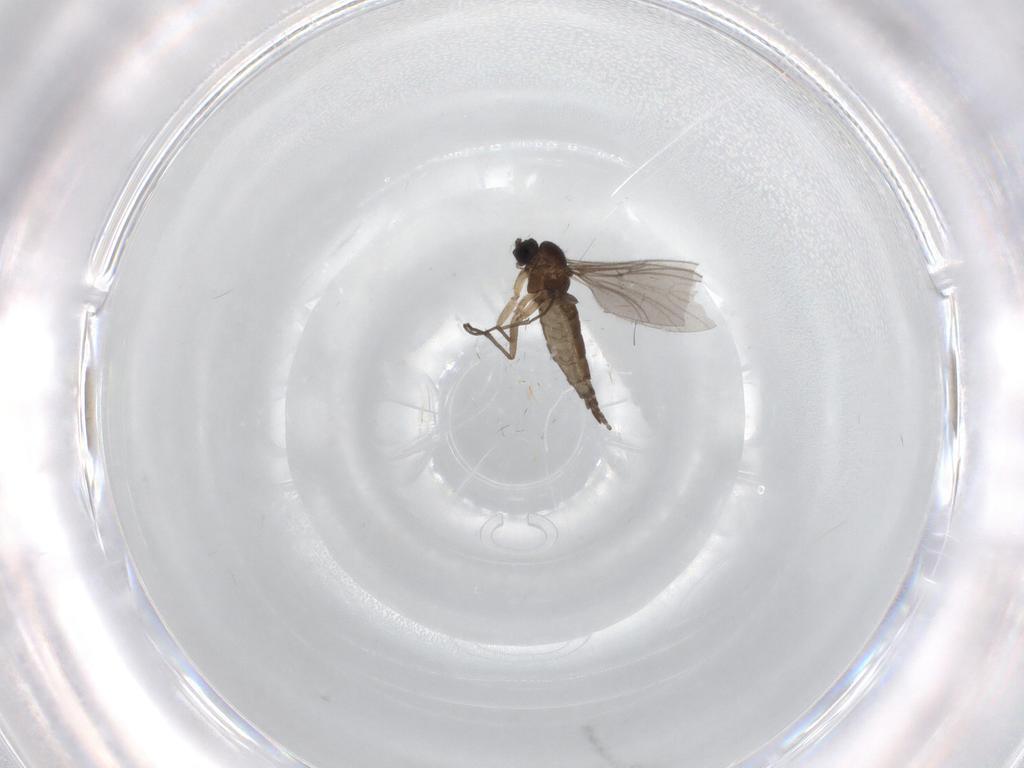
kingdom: Animalia
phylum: Arthropoda
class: Insecta
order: Diptera
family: Sciaridae
